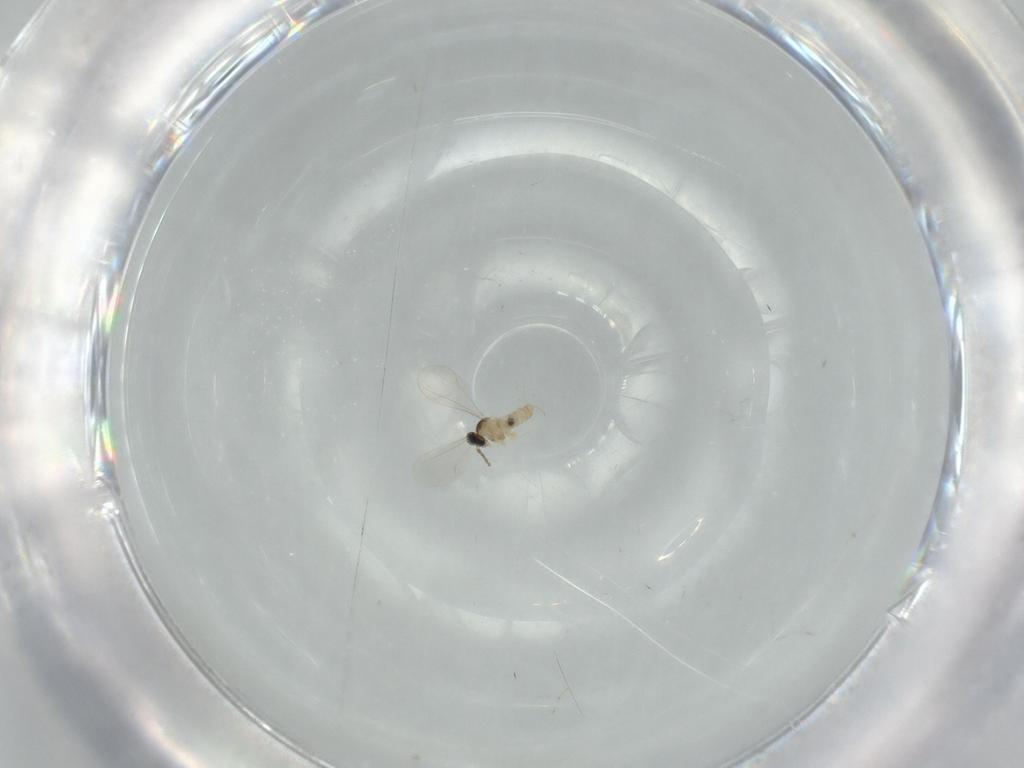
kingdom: Animalia
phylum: Arthropoda
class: Insecta
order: Diptera
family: Cecidomyiidae
